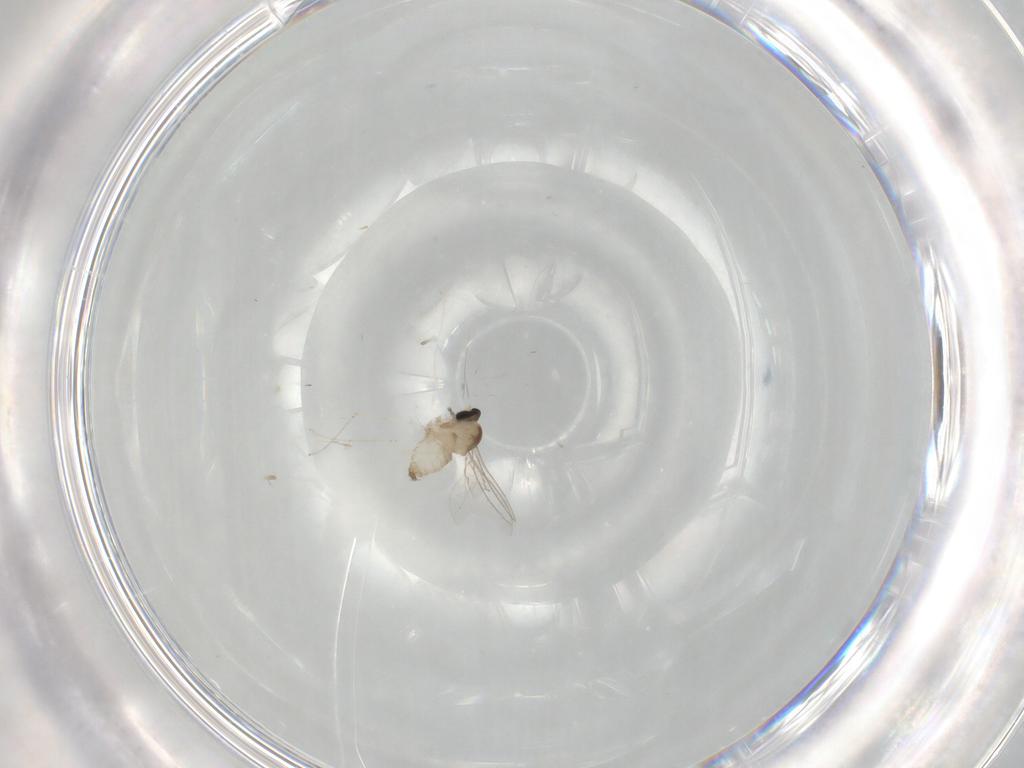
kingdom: Animalia
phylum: Arthropoda
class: Insecta
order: Diptera
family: Cecidomyiidae
